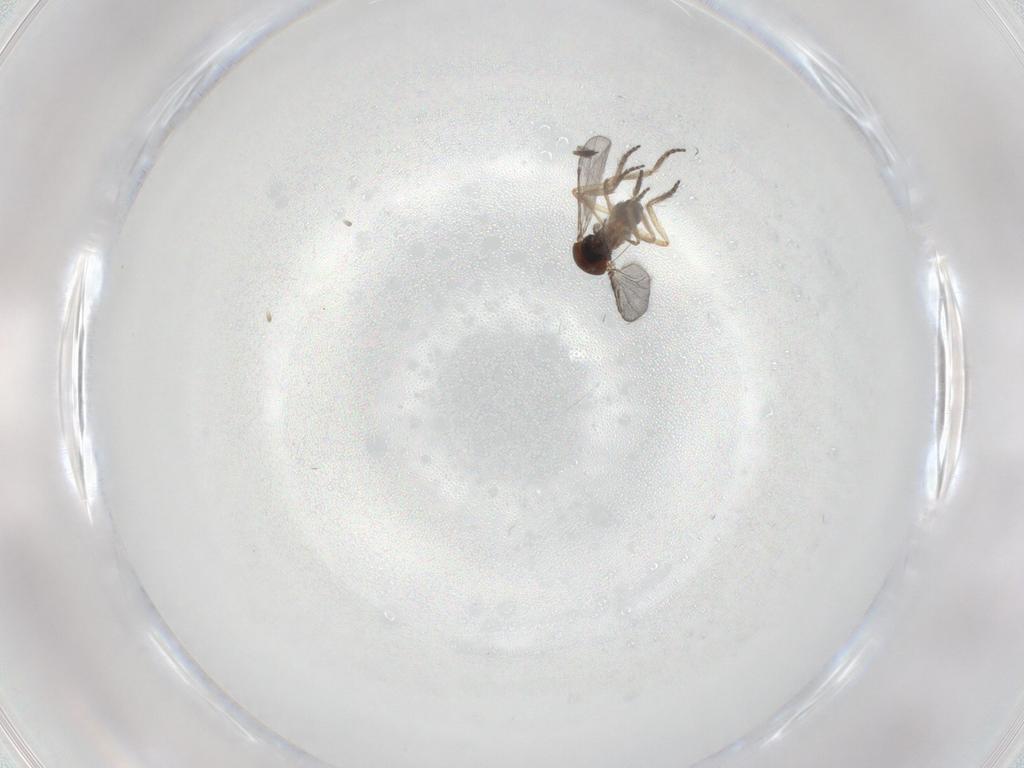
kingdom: Animalia
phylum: Arthropoda
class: Insecta
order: Diptera
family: Ceratopogonidae
